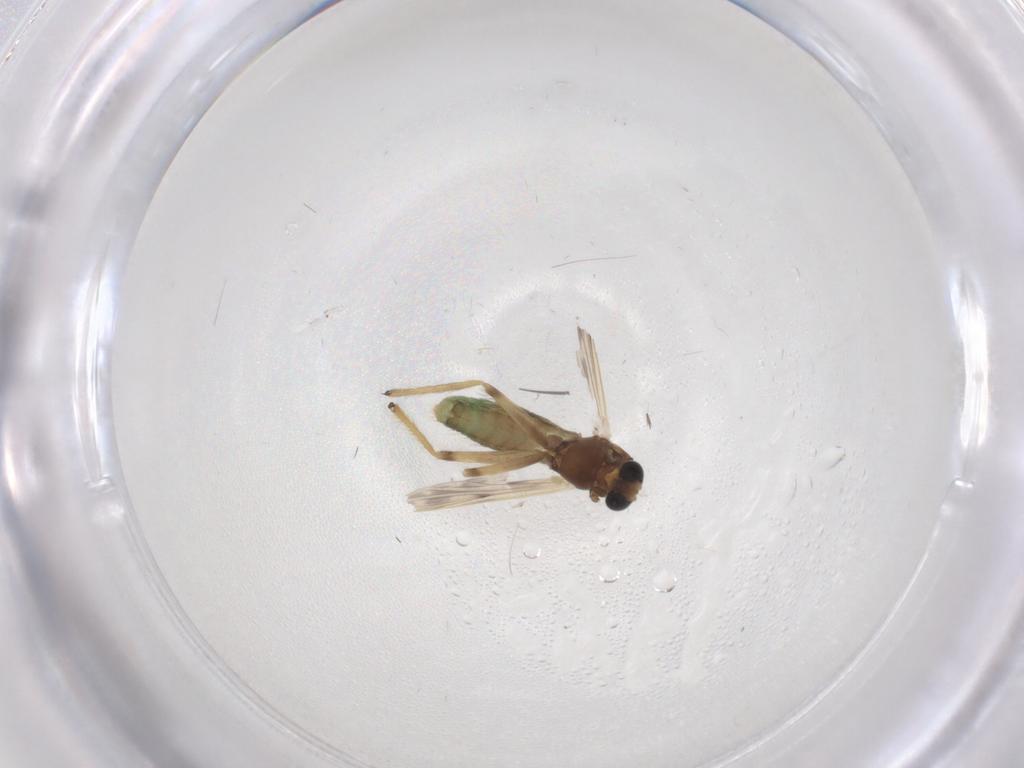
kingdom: Animalia
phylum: Arthropoda
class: Insecta
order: Diptera
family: Chironomidae
